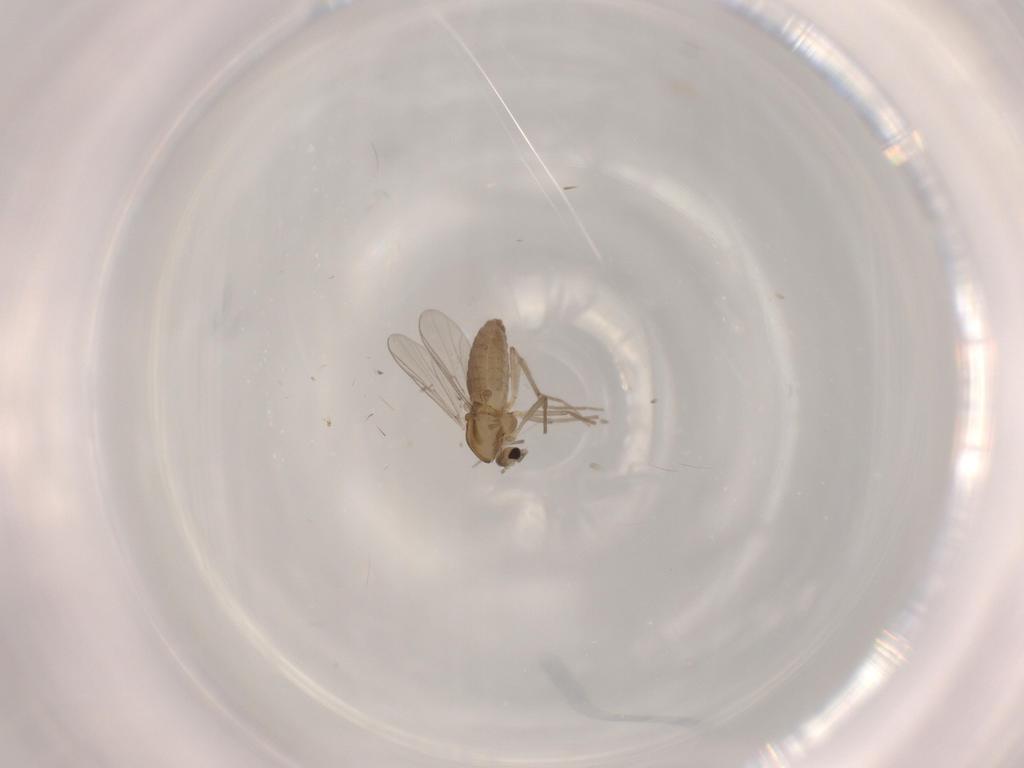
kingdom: Animalia
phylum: Arthropoda
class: Insecta
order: Diptera
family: Chironomidae
